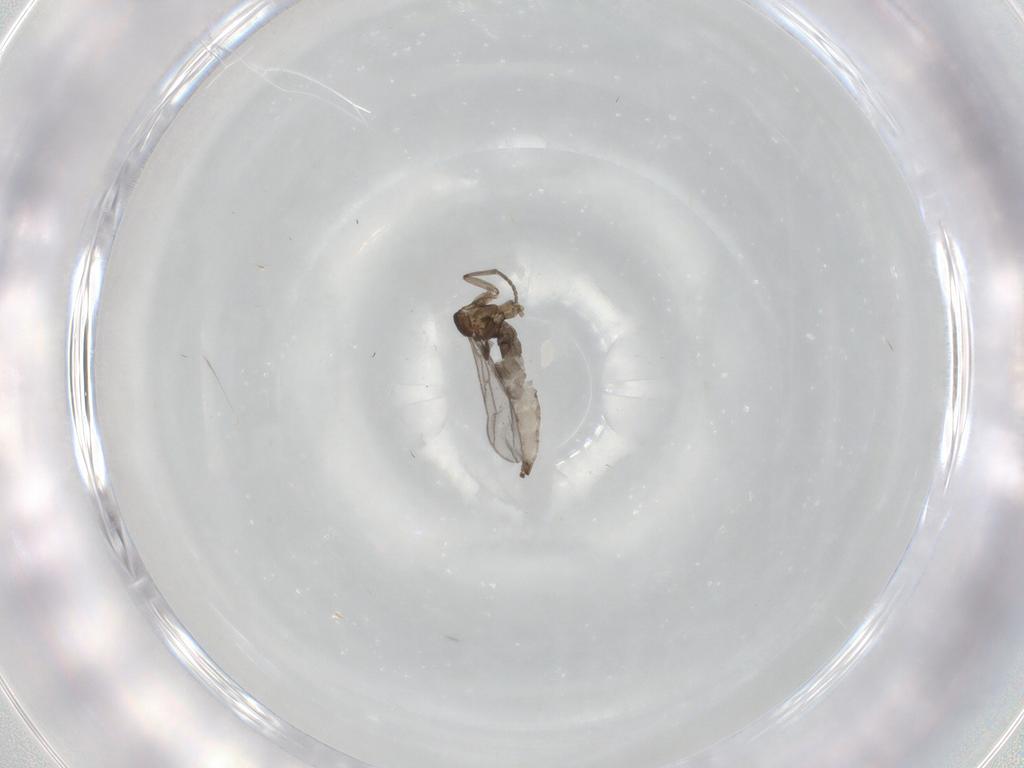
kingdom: Animalia
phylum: Arthropoda
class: Insecta
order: Diptera
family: Sciaridae
